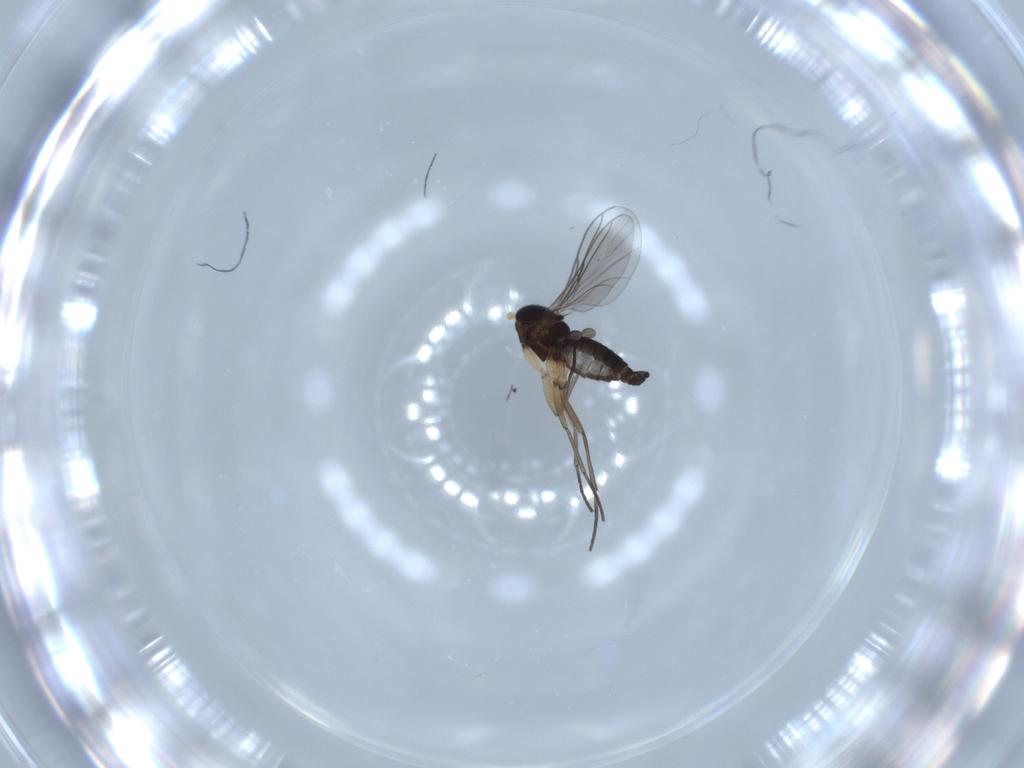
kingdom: Animalia
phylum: Arthropoda
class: Insecta
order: Diptera
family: Sciaridae
